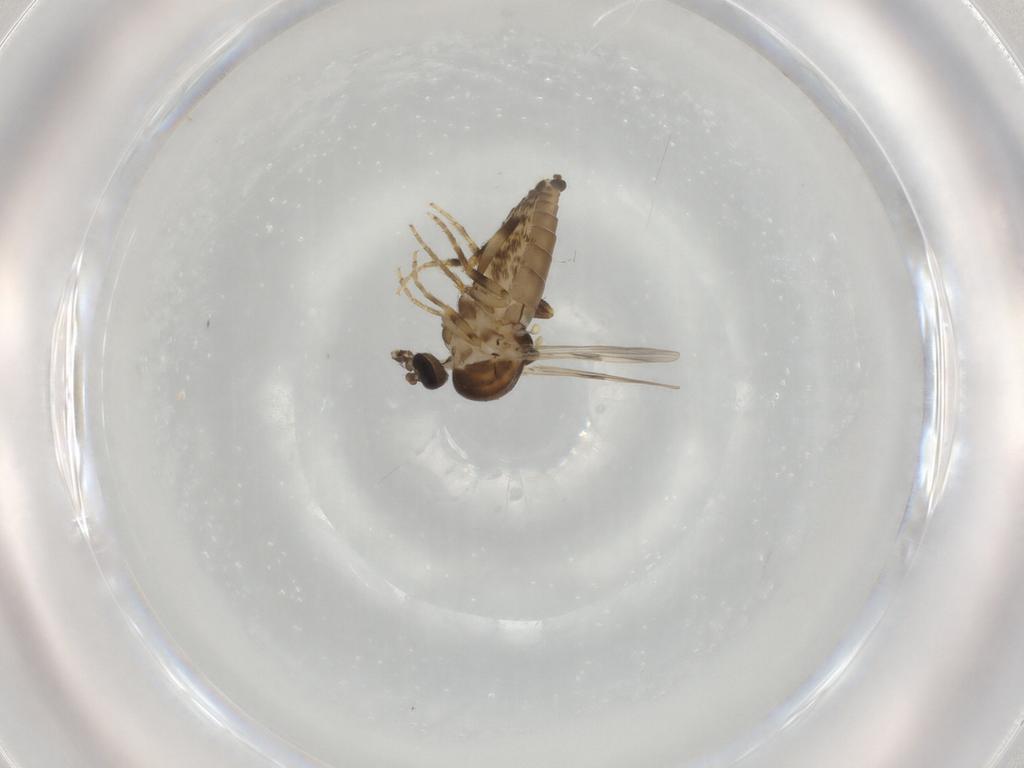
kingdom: Animalia
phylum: Arthropoda
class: Insecta
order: Diptera
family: Ceratopogonidae
